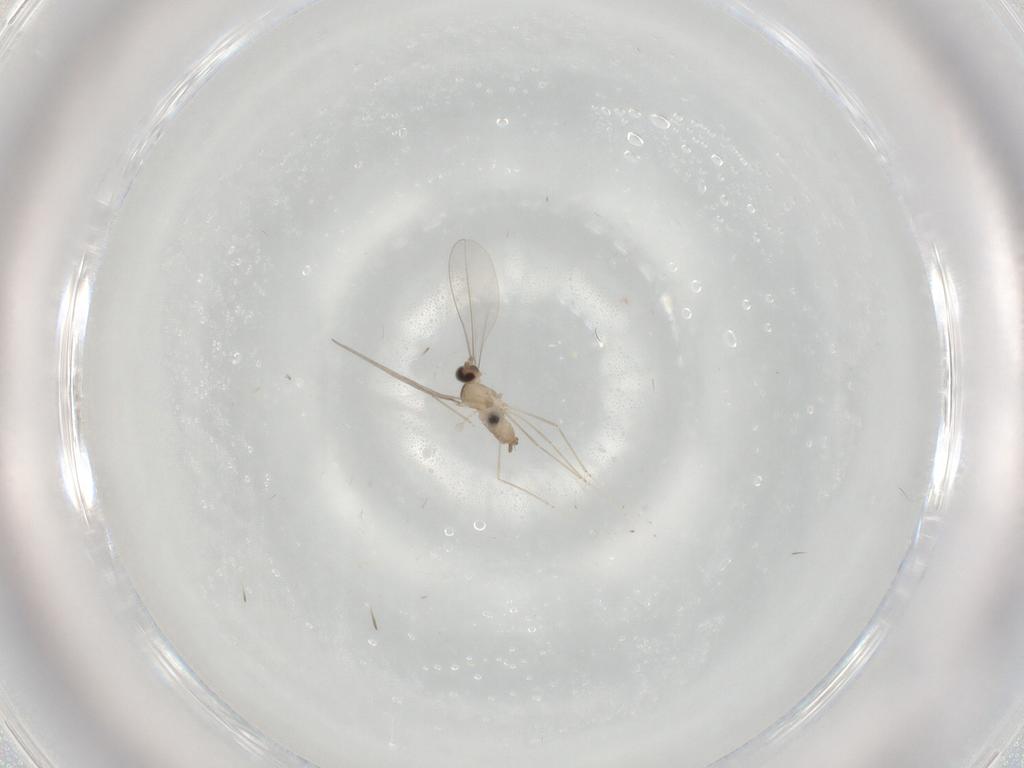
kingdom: Animalia
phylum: Arthropoda
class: Insecta
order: Diptera
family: Cecidomyiidae
